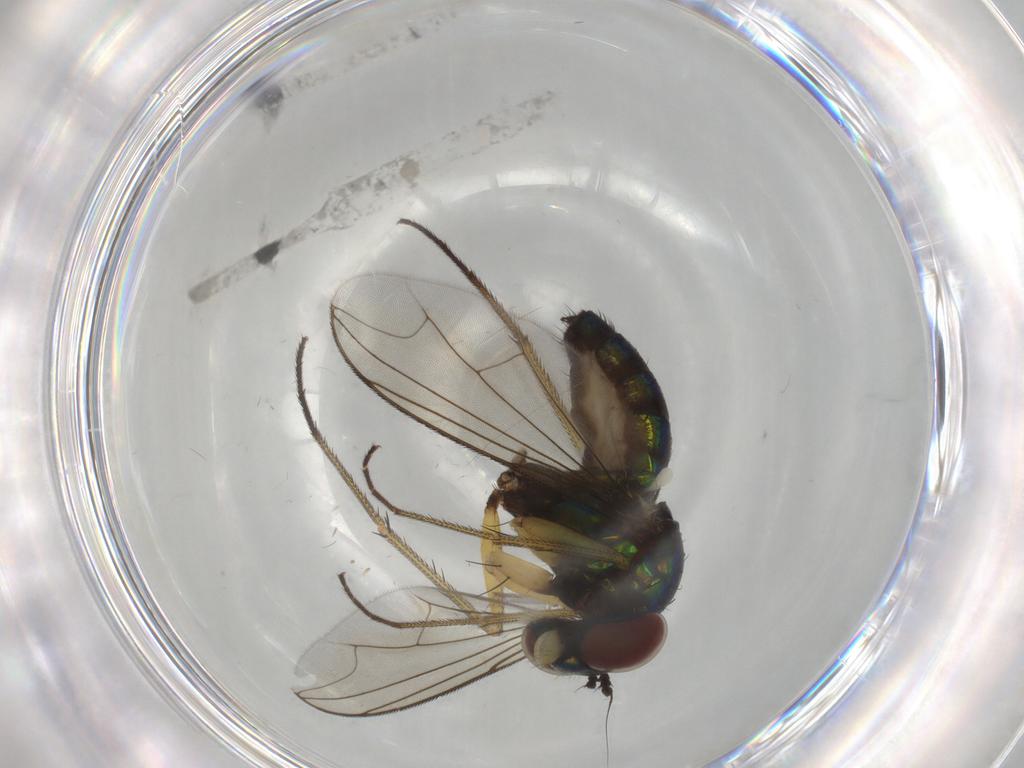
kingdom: Animalia
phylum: Arthropoda
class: Insecta
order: Diptera
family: Dolichopodidae
